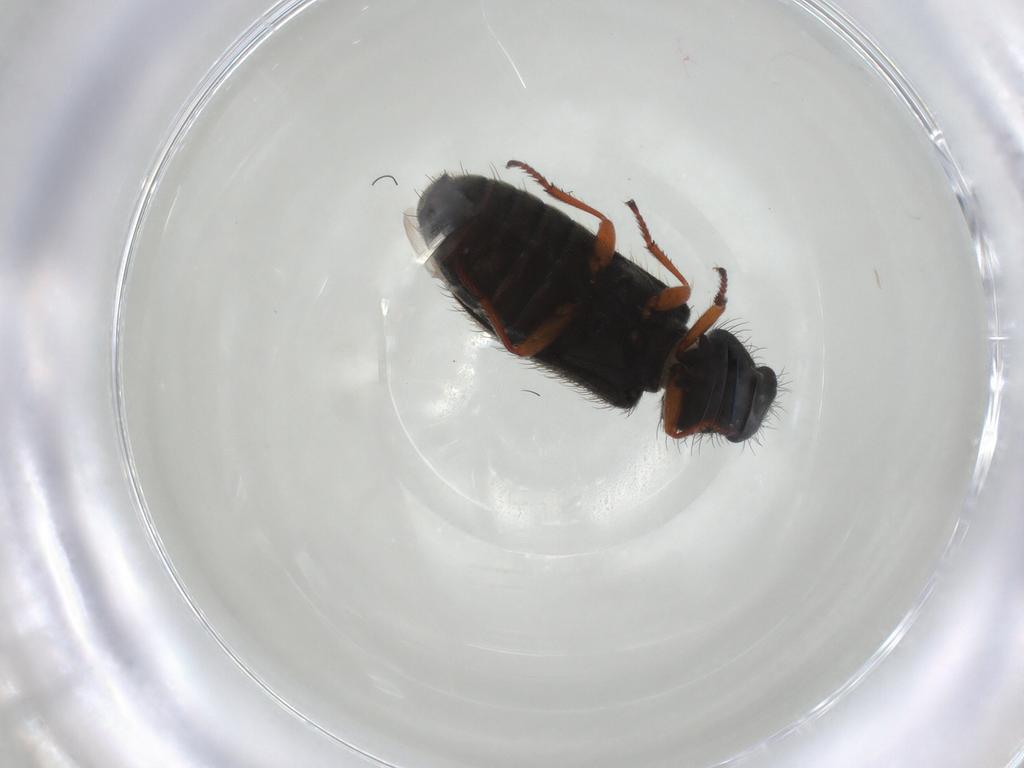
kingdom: Animalia
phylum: Arthropoda
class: Insecta
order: Coleoptera
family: Melyridae
